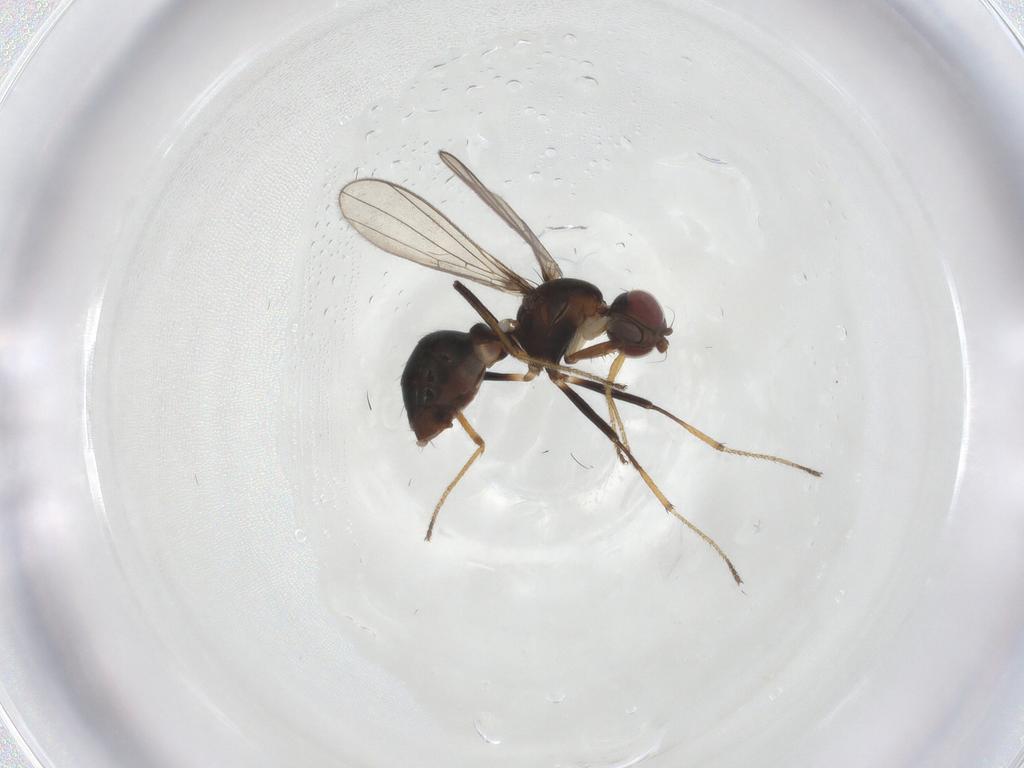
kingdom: Animalia
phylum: Arthropoda
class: Insecta
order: Diptera
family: Sepsidae
